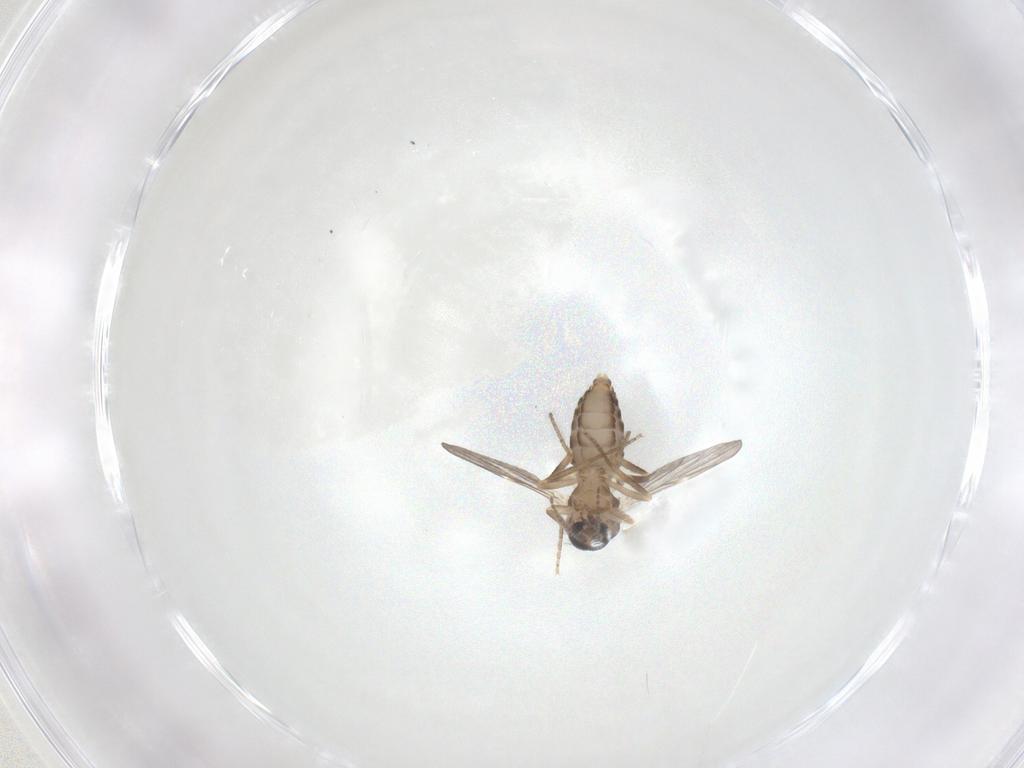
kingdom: Animalia
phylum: Arthropoda
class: Insecta
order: Diptera
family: Ceratopogonidae
